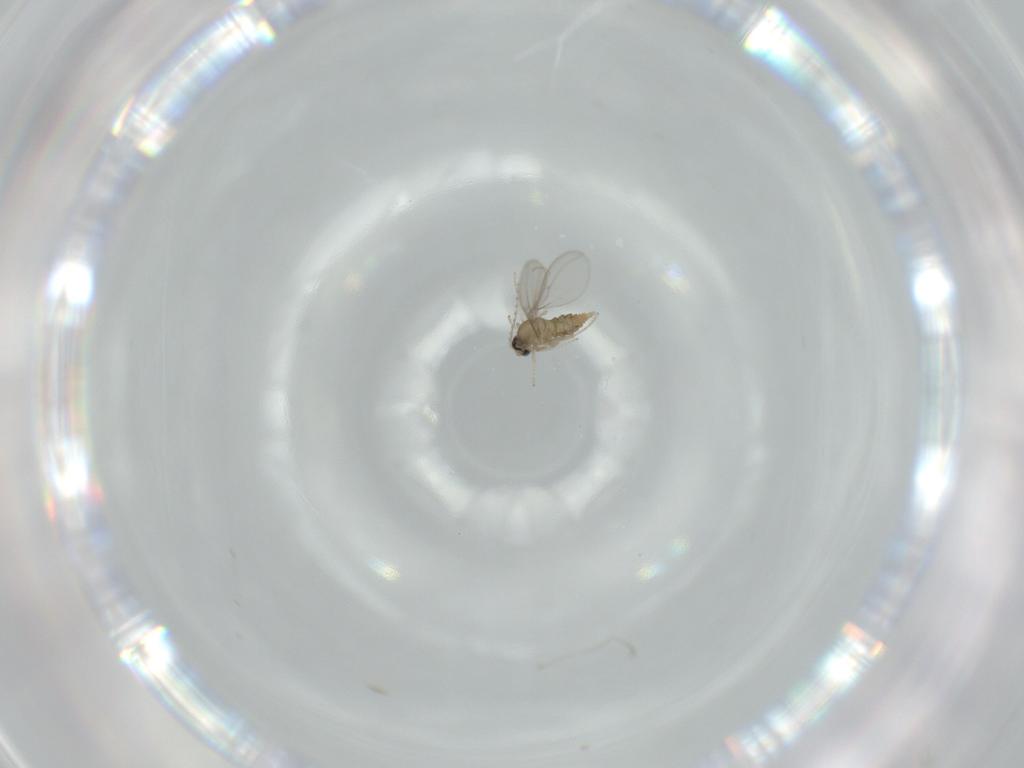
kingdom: Animalia
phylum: Arthropoda
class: Insecta
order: Diptera
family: Cecidomyiidae
